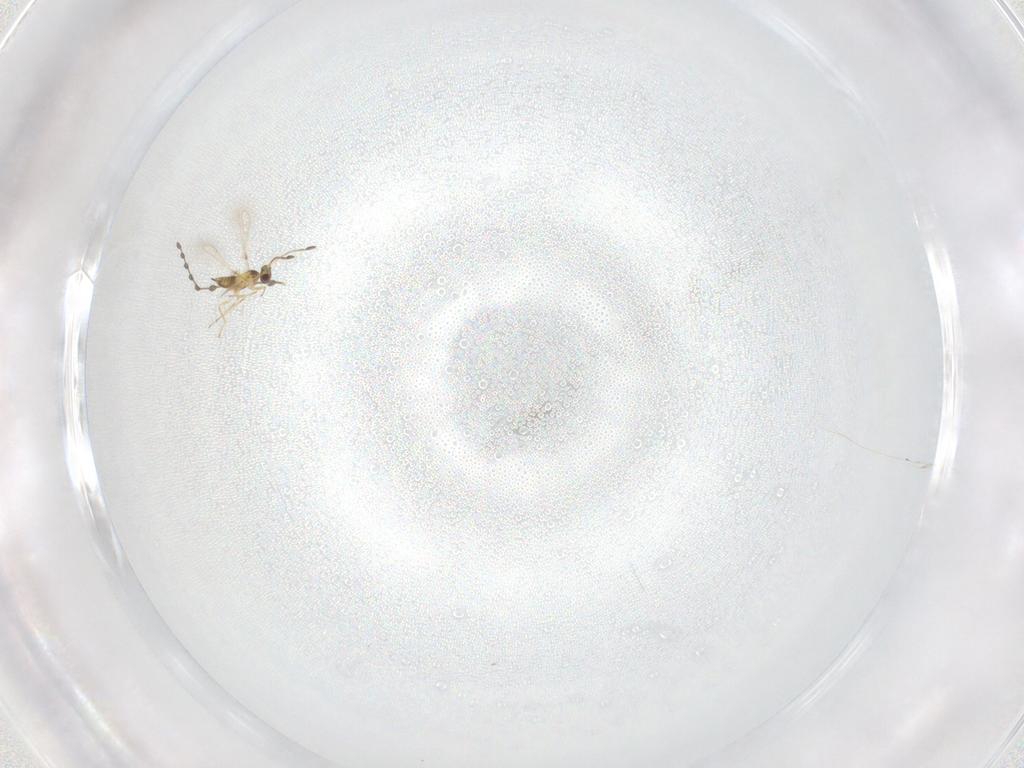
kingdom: Animalia
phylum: Arthropoda
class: Insecta
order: Hymenoptera
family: Mymaridae
